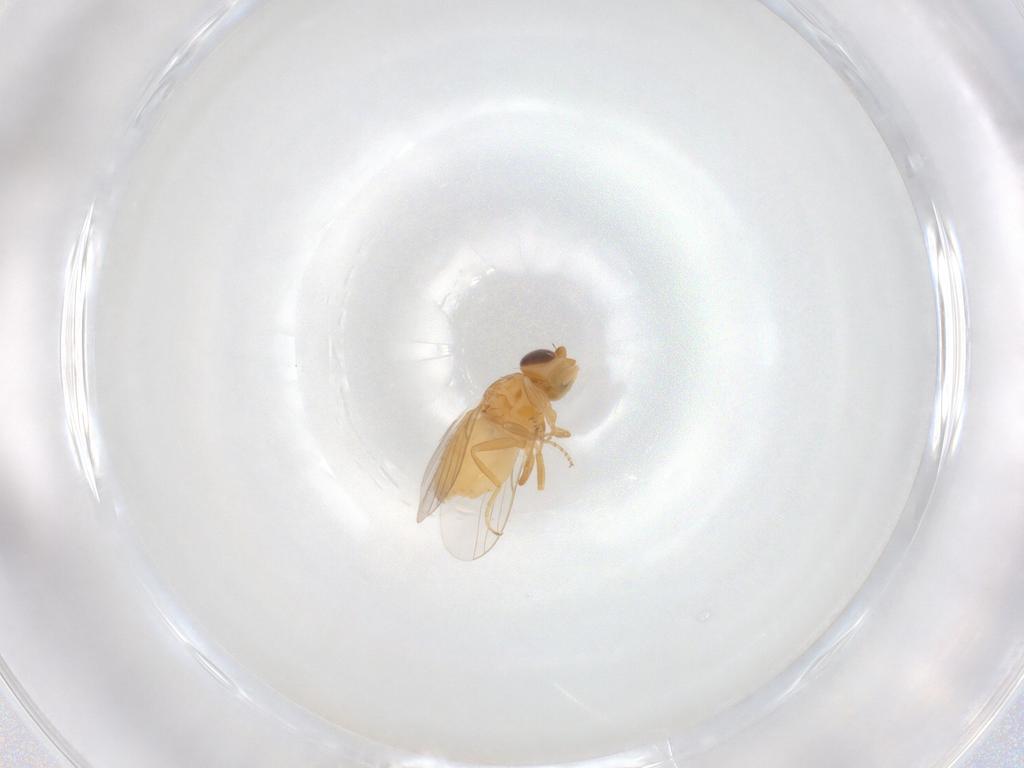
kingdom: Animalia
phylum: Arthropoda
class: Insecta
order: Diptera
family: Chloropidae
